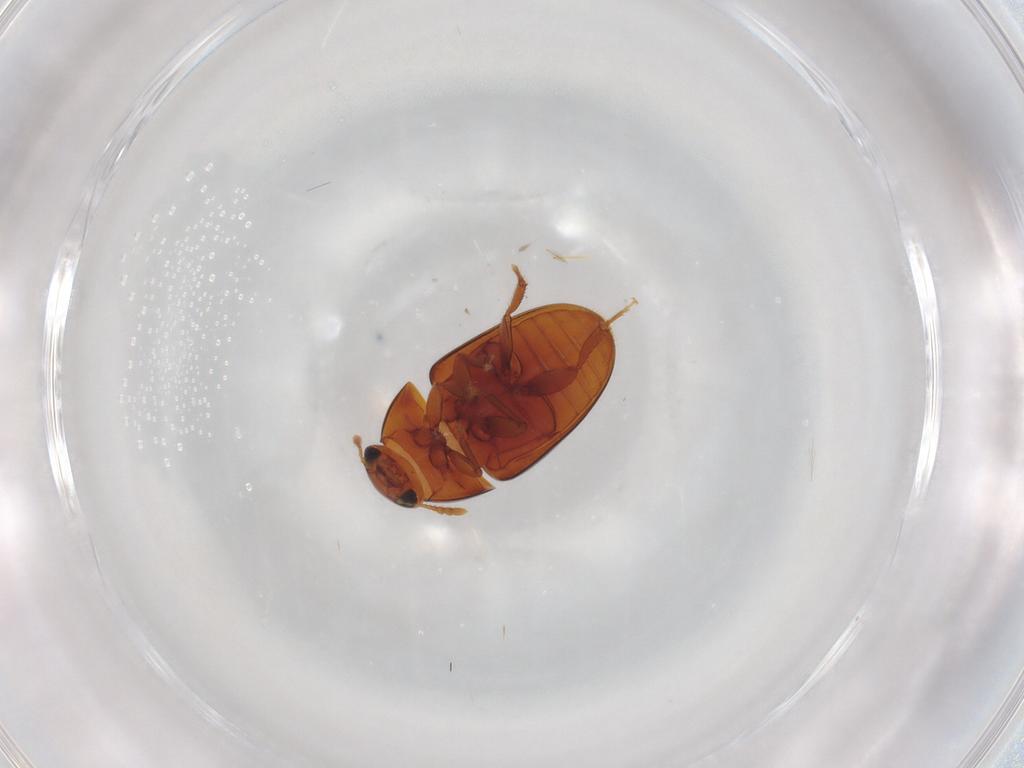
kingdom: Animalia
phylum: Arthropoda
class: Insecta
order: Coleoptera
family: Phalacridae
